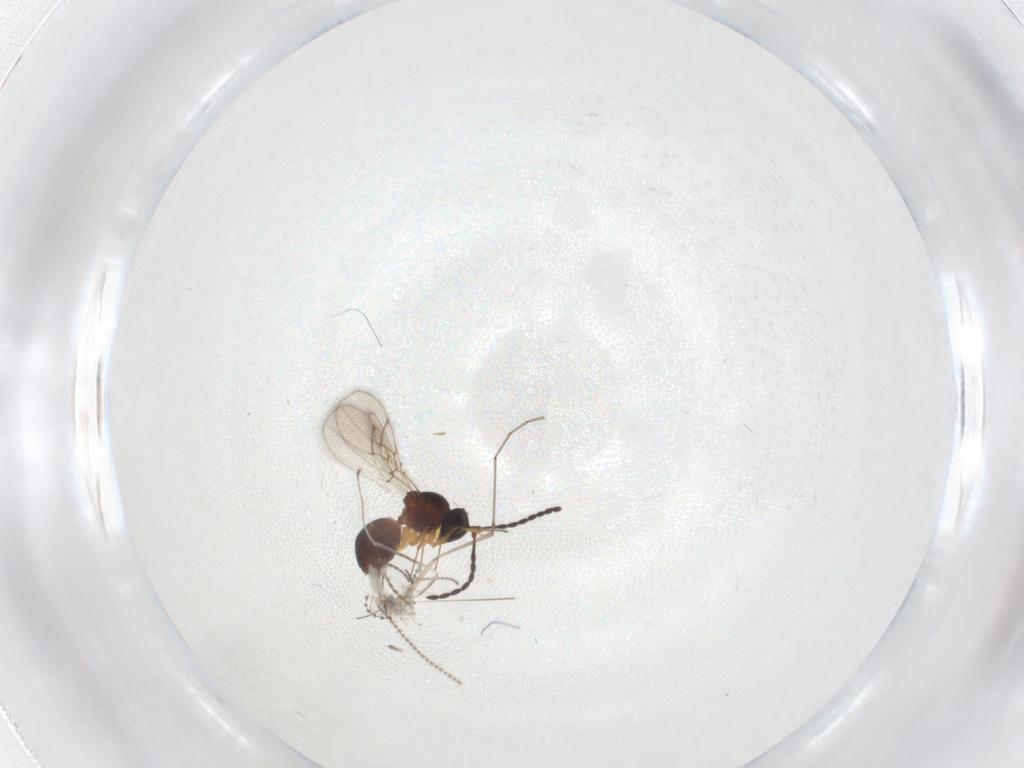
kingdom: Animalia
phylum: Arthropoda
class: Insecta
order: Hymenoptera
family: Figitidae
